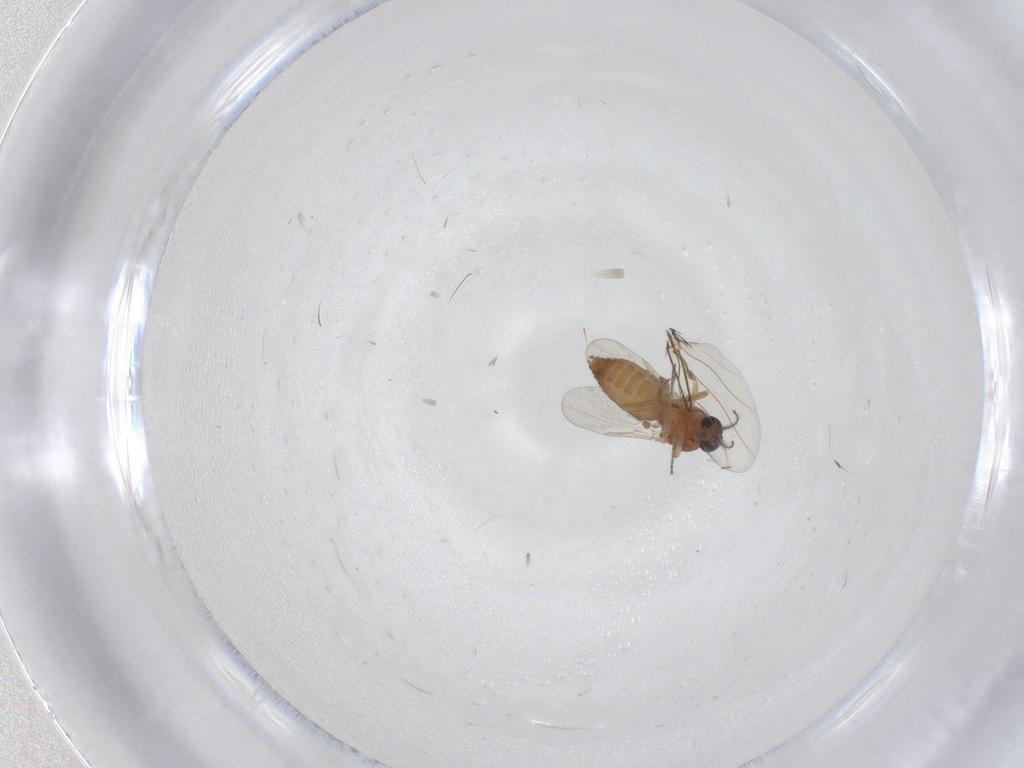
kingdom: Animalia
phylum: Arthropoda
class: Insecta
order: Diptera
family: Ceratopogonidae
